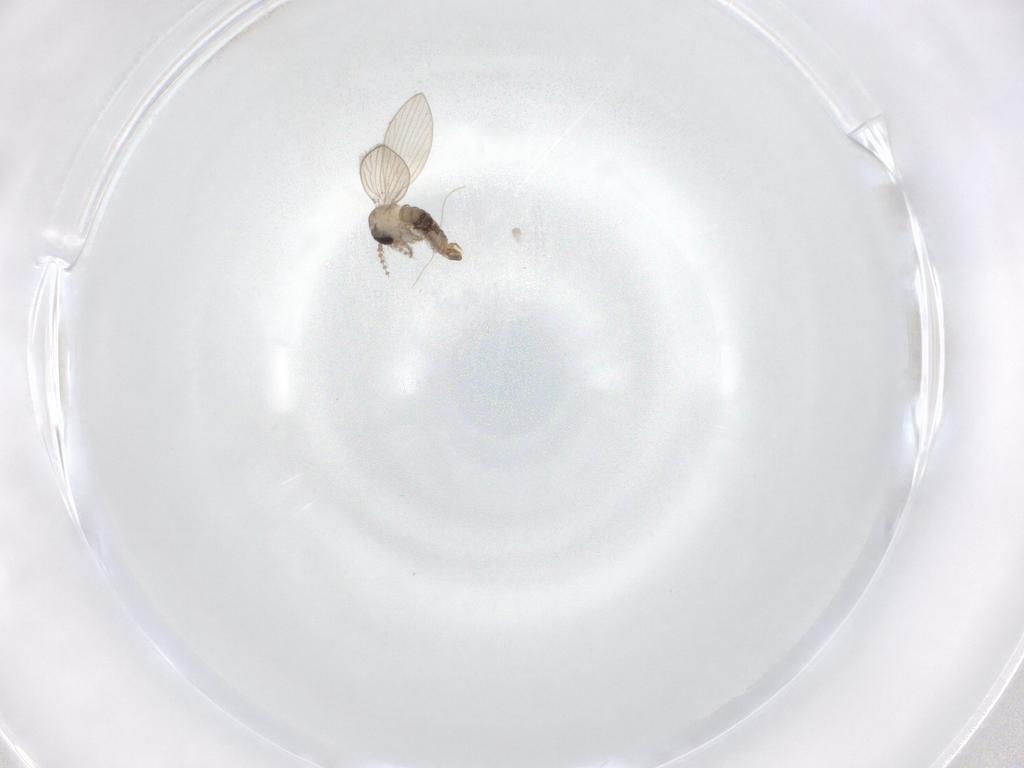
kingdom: Animalia
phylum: Arthropoda
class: Insecta
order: Diptera
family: Psychodidae
